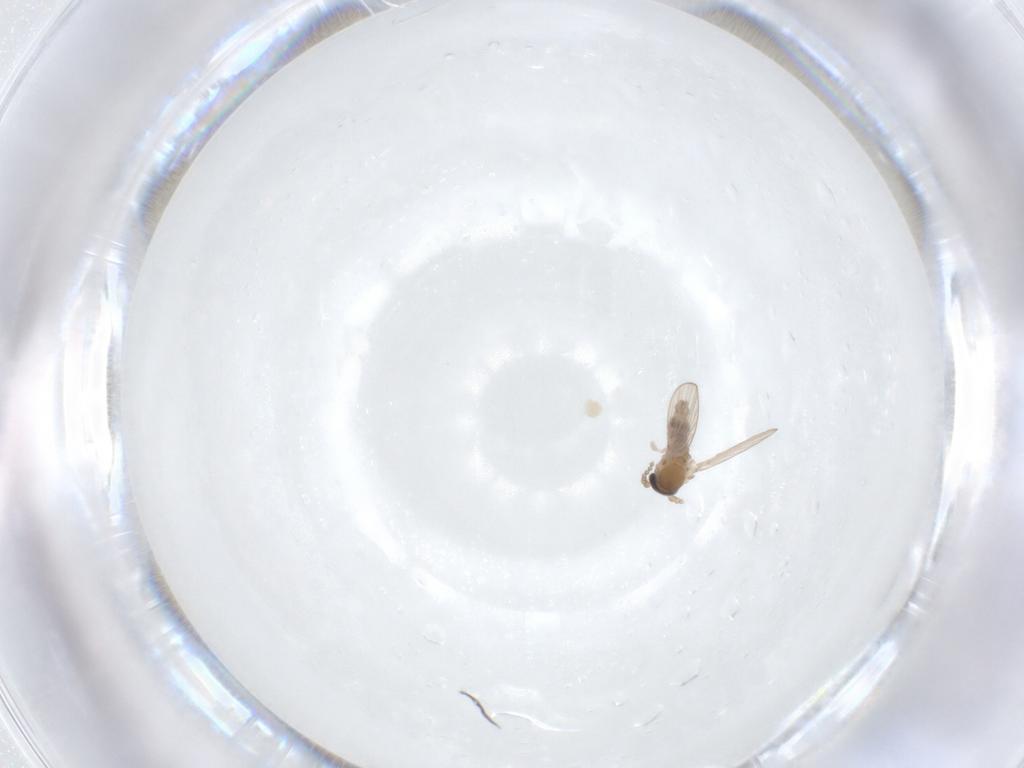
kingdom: Animalia
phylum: Arthropoda
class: Insecta
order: Diptera
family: Psychodidae
